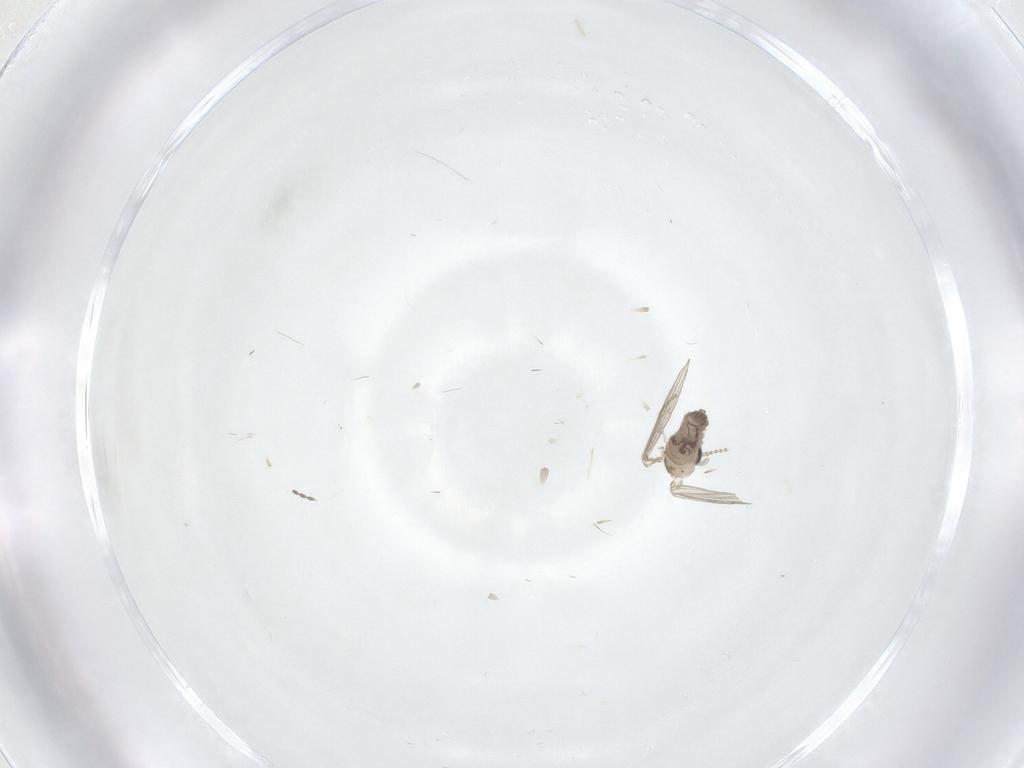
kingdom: Animalia
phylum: Arthropoda
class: Insecta
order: Diptera
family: Psychodidae
